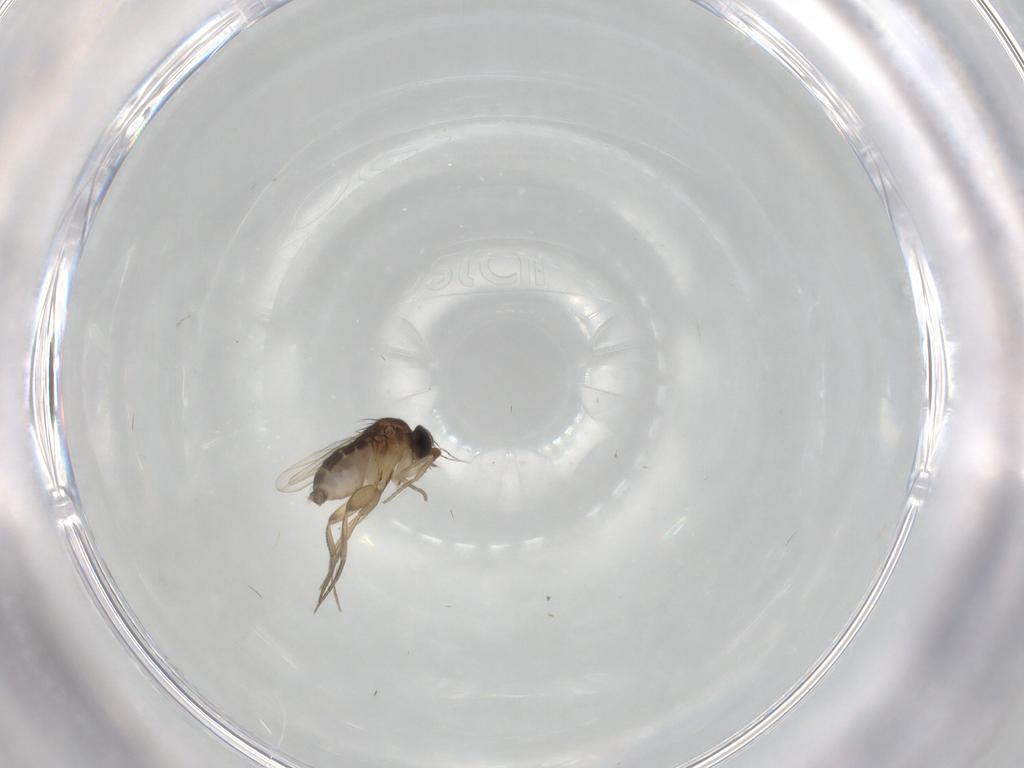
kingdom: Animalia
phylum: Arthropoda
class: Insecta
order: Diptera
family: Phoridae
